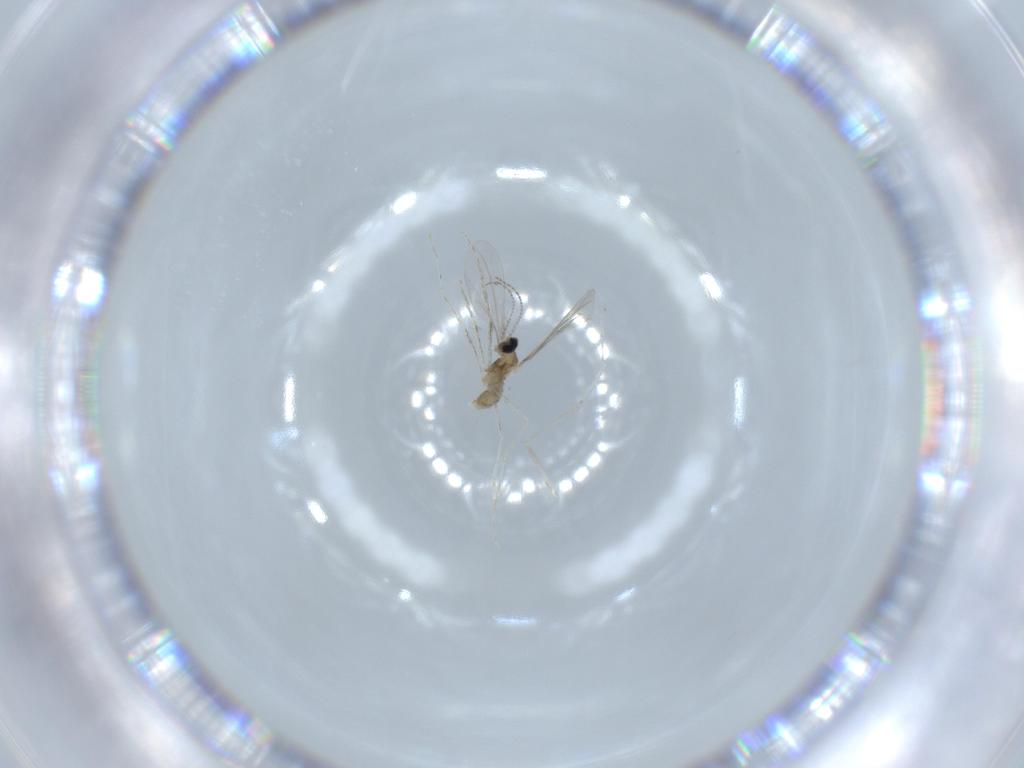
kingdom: Animalia
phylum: Arthropoda
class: Insecta
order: Diptera
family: Cecidomyiidae
